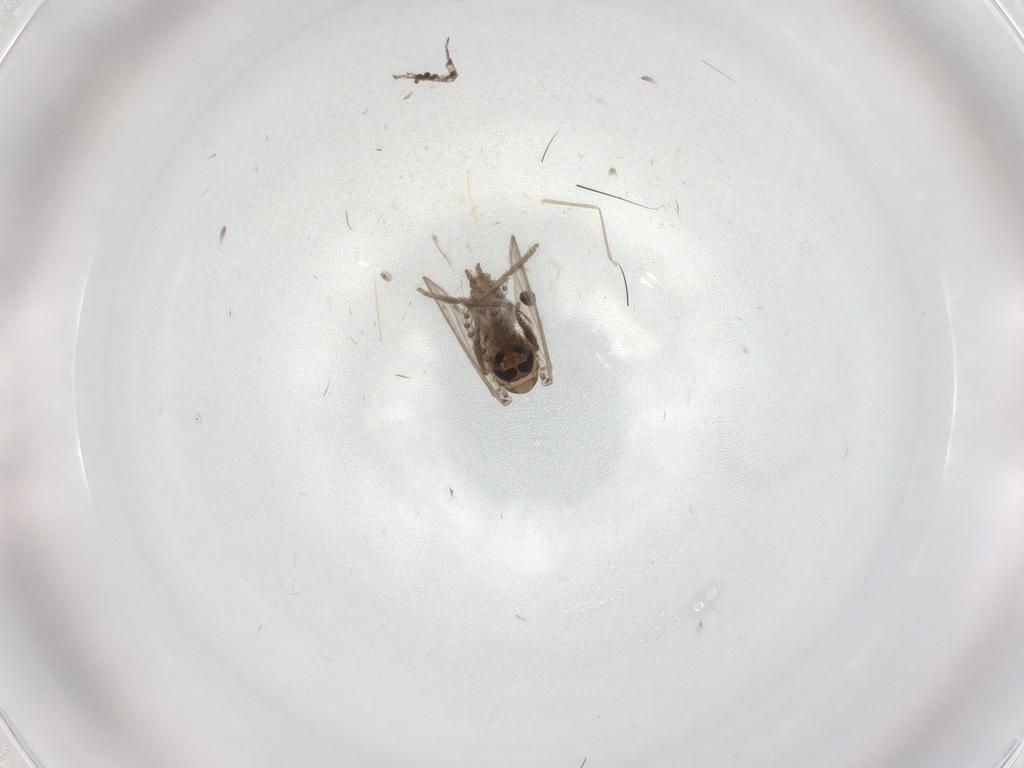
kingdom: Animalia
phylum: Arthropoda
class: Insecta
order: Diptera
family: Psychodidae
